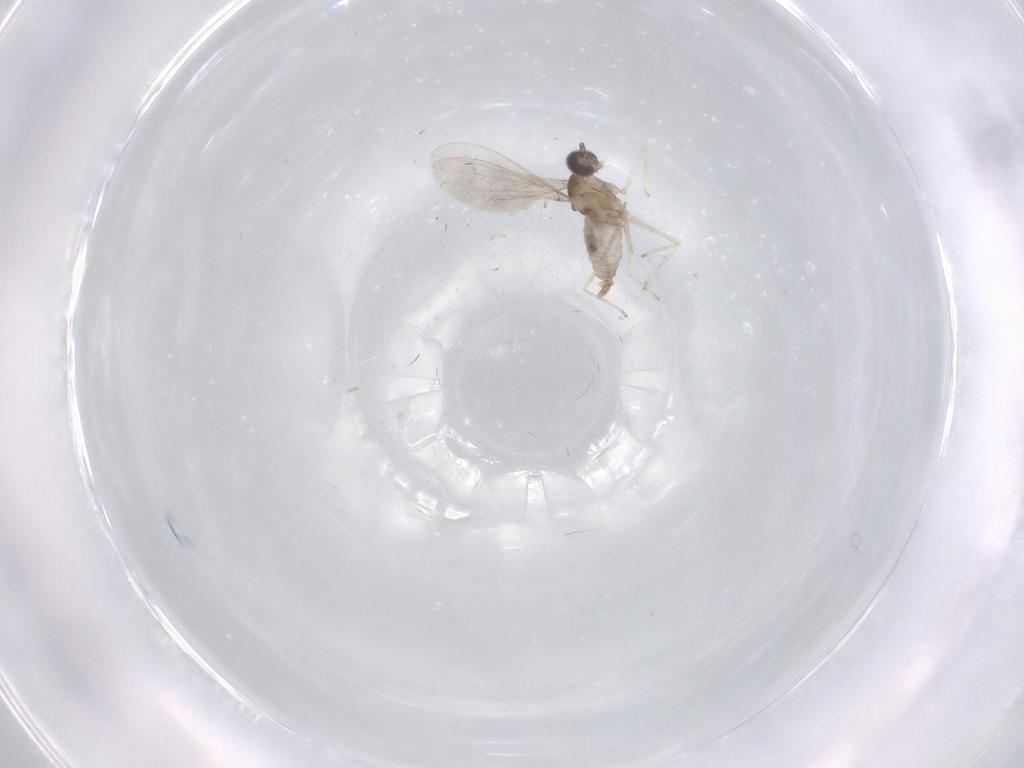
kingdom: Animalia
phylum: Arthropoda
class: Insecta
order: Diptera
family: Cecidomyiidae
